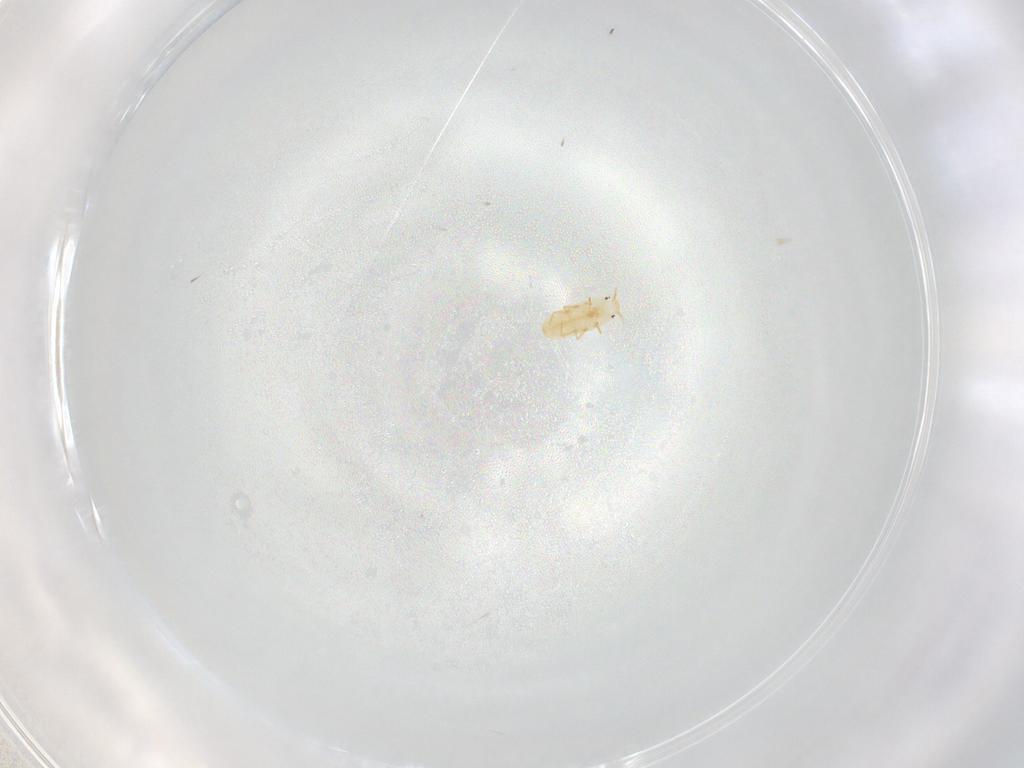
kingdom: Animalia
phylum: Arthropoda
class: Insecta
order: Hemiptera
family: Coccoidea_incertae_sedis
